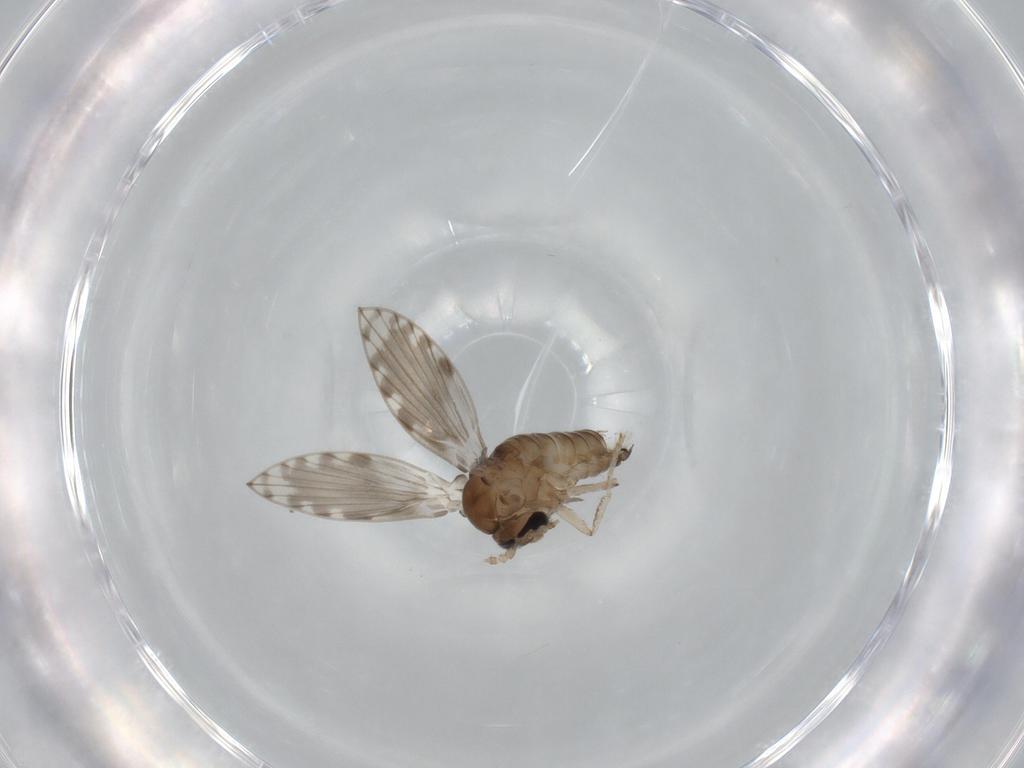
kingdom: Animalia
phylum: Arthropoda
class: Insecta
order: Diptera
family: Psychodidae
